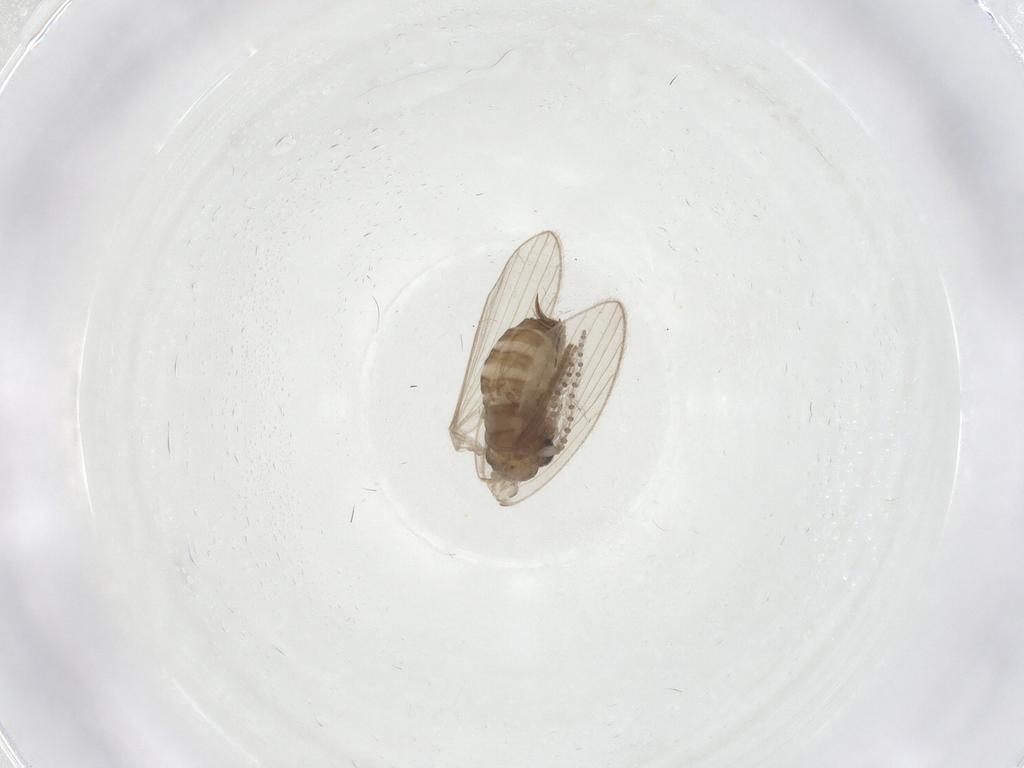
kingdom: Animalia
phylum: Arthropoda
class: Insecta
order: Diptera
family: Psychodidae
